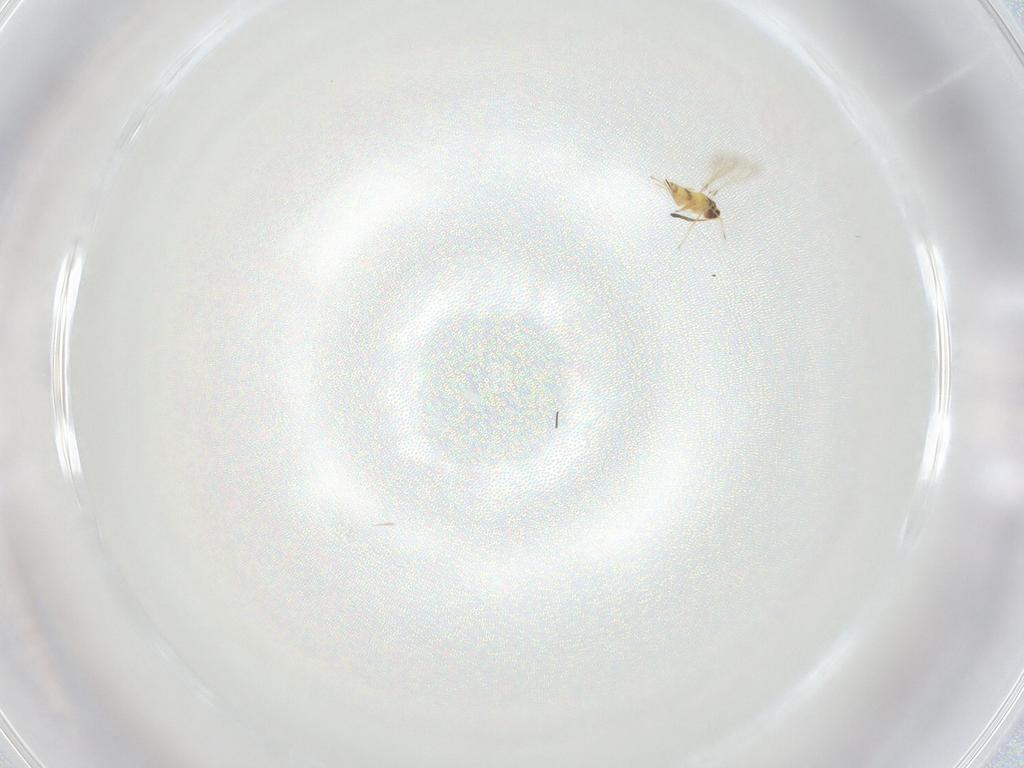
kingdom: Animalia
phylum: Arthropoda
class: Insecta
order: Hymenoptera
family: Mymaridae
